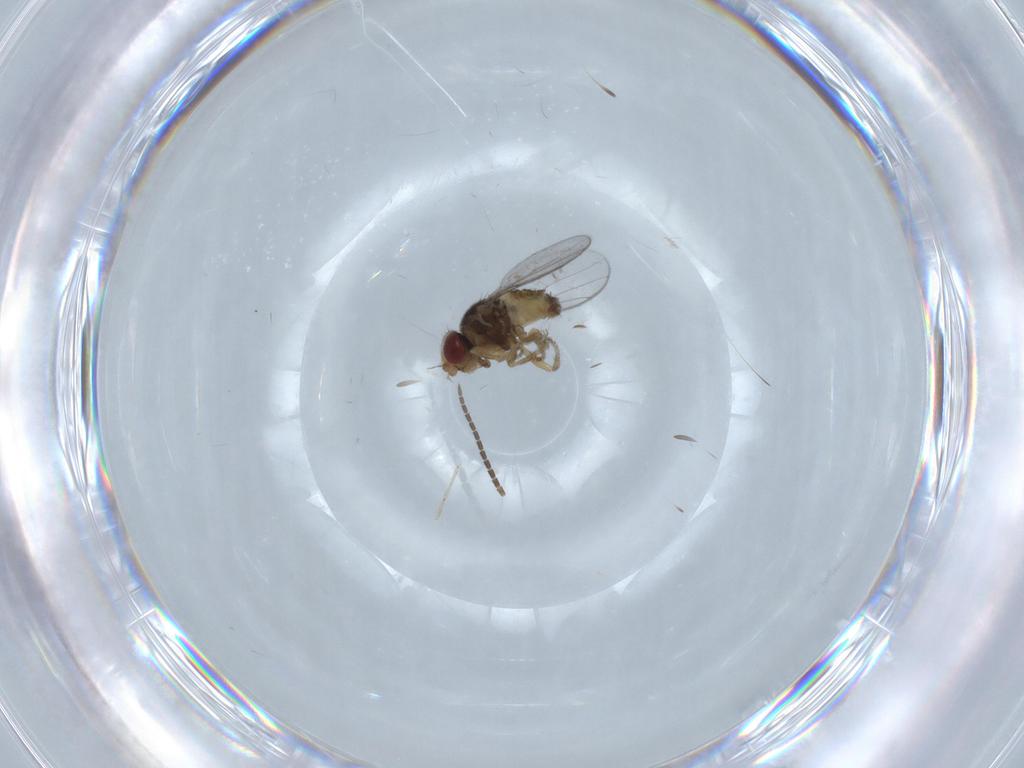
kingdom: Animalia
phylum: Arthropoda
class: Insecta
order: Diptera
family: Chloropidae
